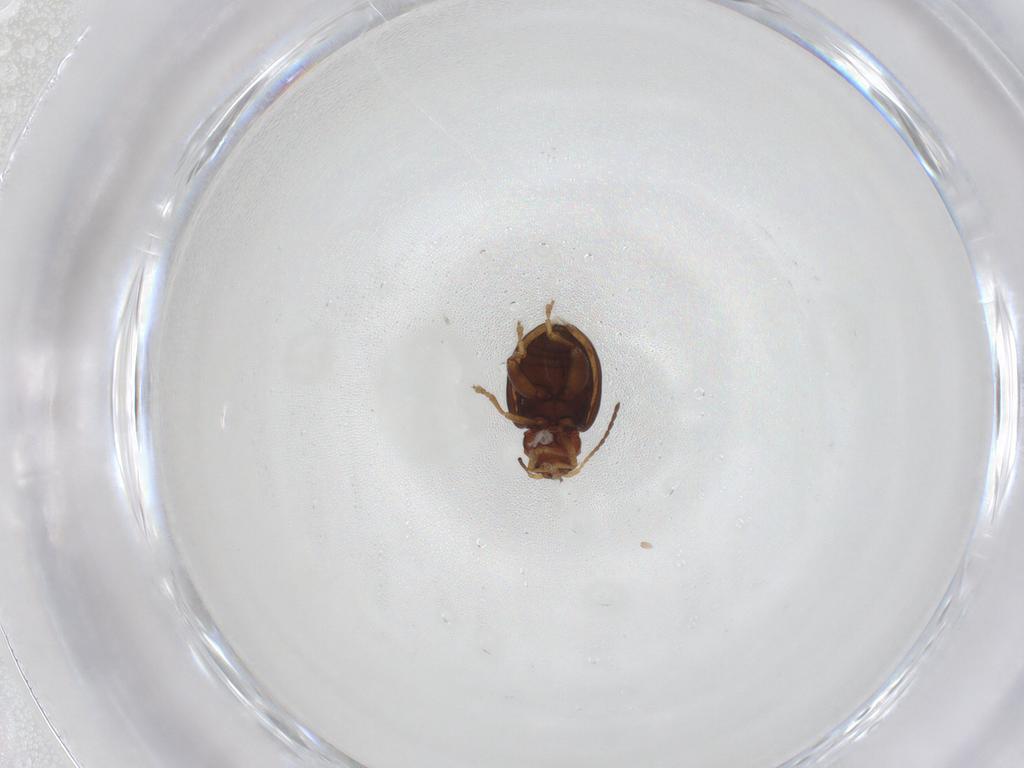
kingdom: Animalia
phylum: Arthropoda
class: Insecta
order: Coleoptera
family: Chrysomelidae
